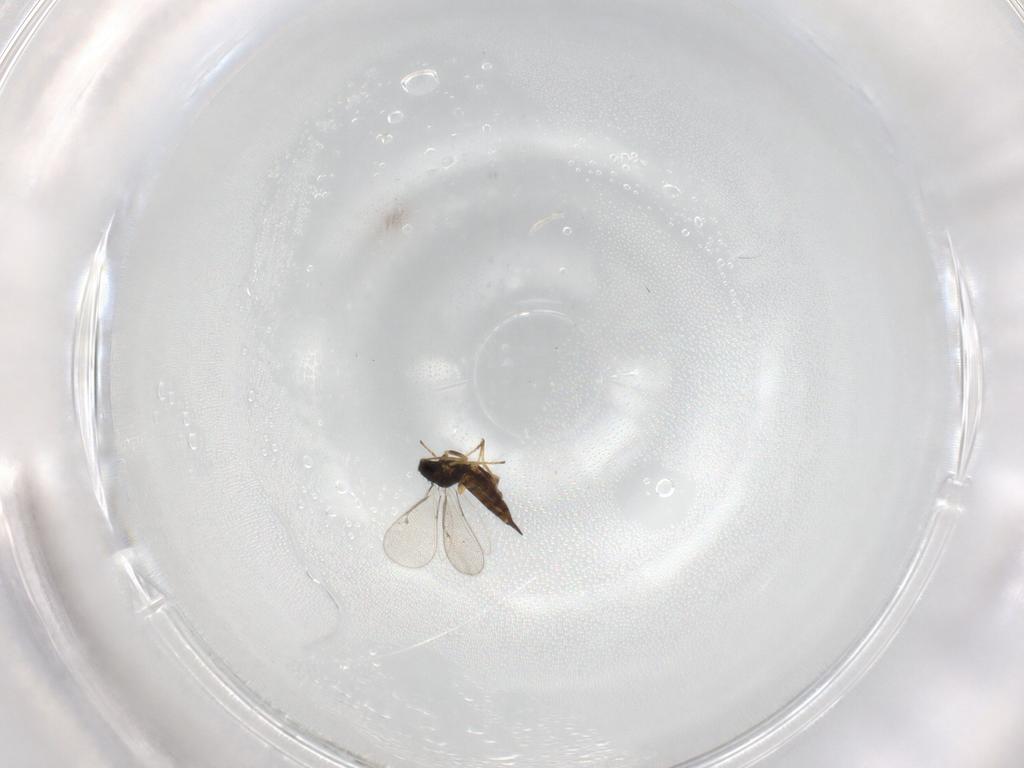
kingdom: Animalia
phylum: Arthropoda
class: Insecta
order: Hymenoptera
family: Eulophidae
